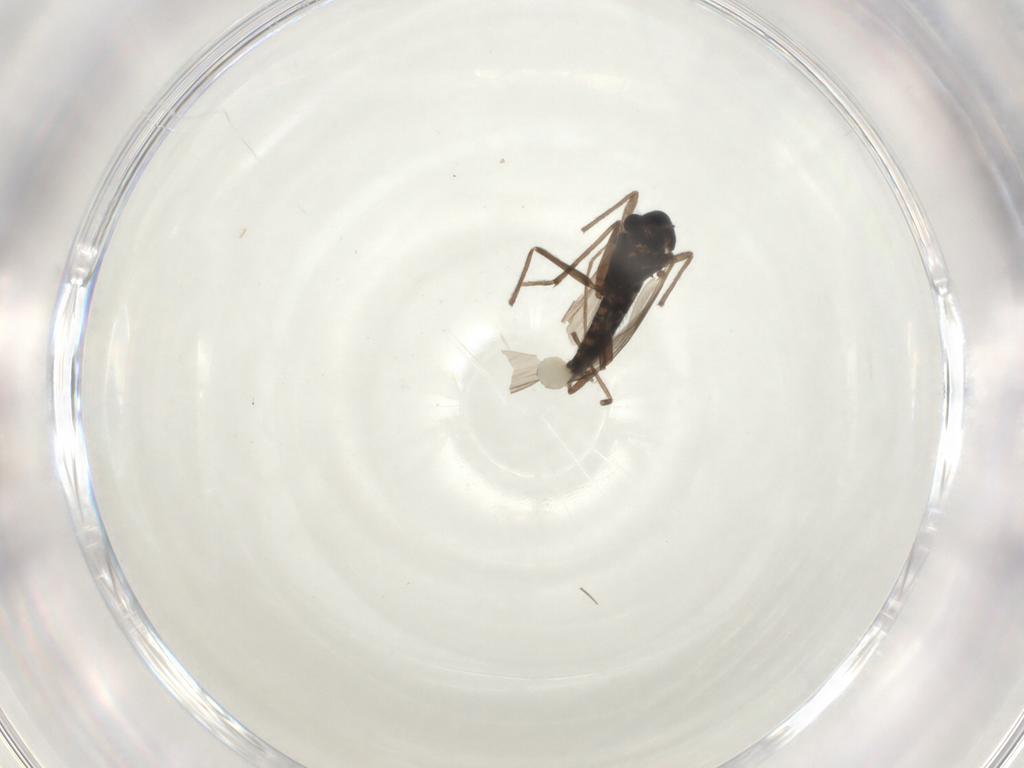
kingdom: Animalia
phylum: Arthropoda
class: Insecta
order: Diptera
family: Chironomidae
